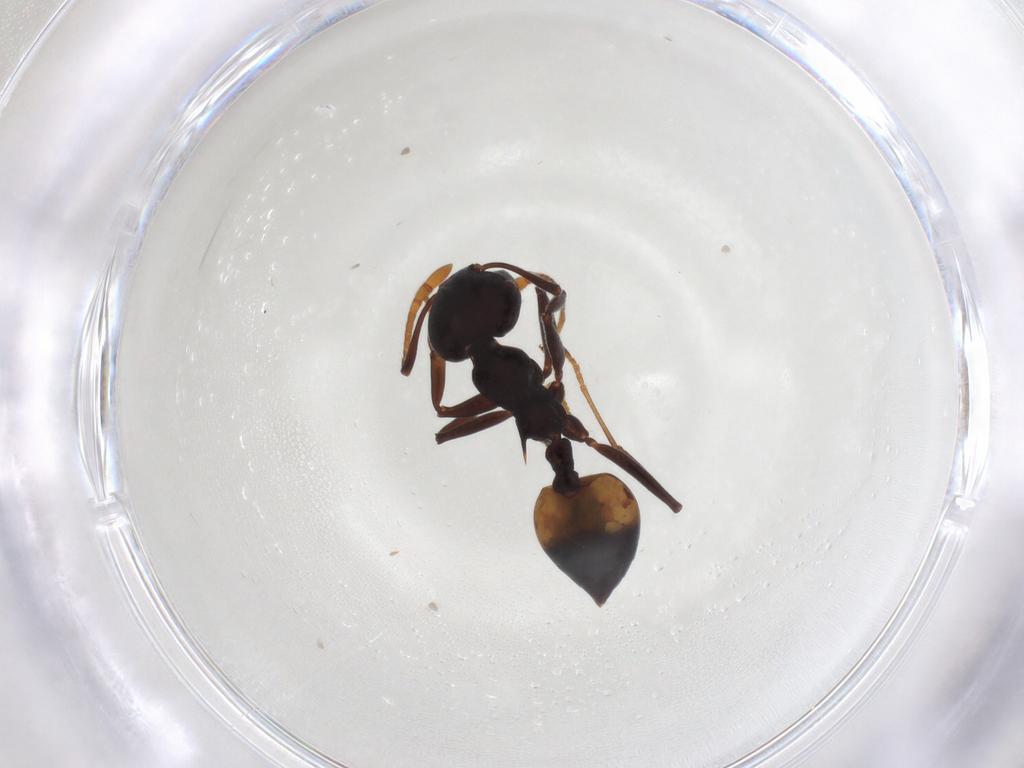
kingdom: Animalia
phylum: Arthropoda
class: Insecta
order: Hymenoptera
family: Formicidae
